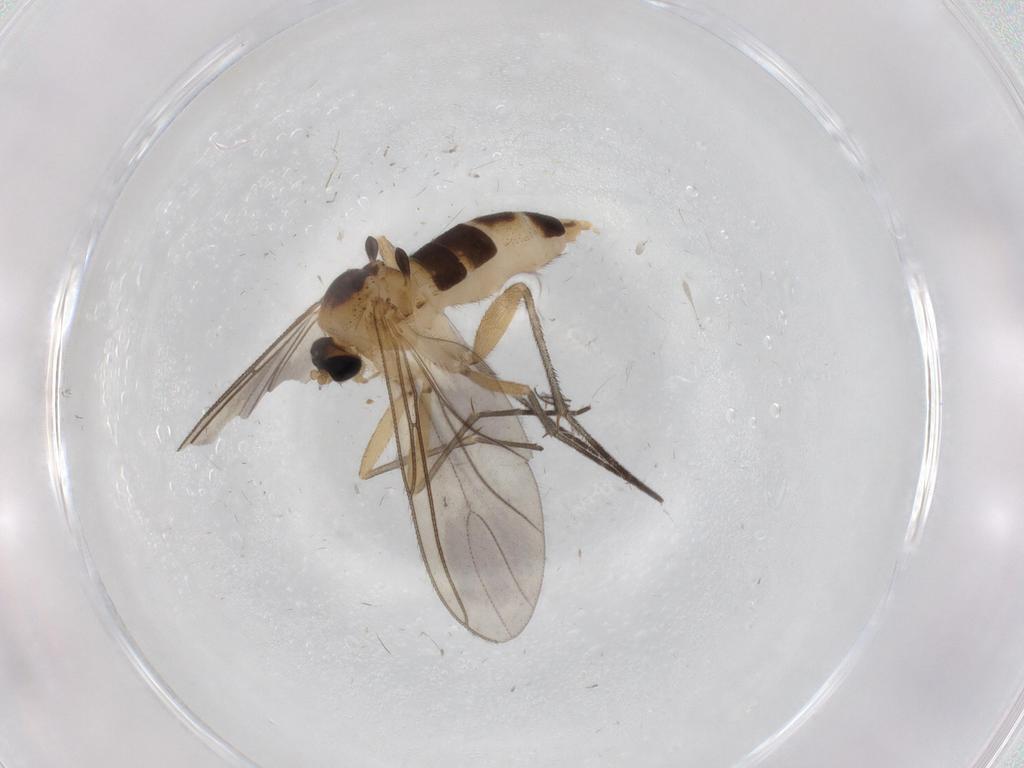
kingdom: Animalia
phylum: Arthropoda
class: Insecta
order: Diptera
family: Sciaridae
